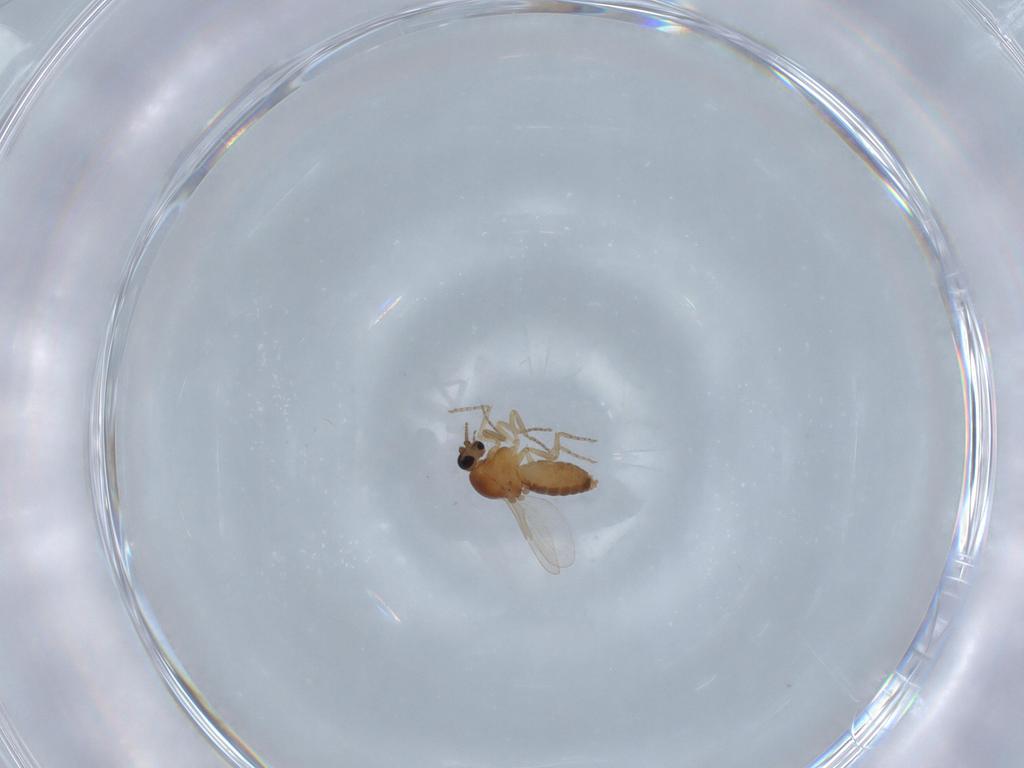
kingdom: Animalia
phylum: Arthropoda
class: Insecta
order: Diptera
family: Ceratopogonidae
